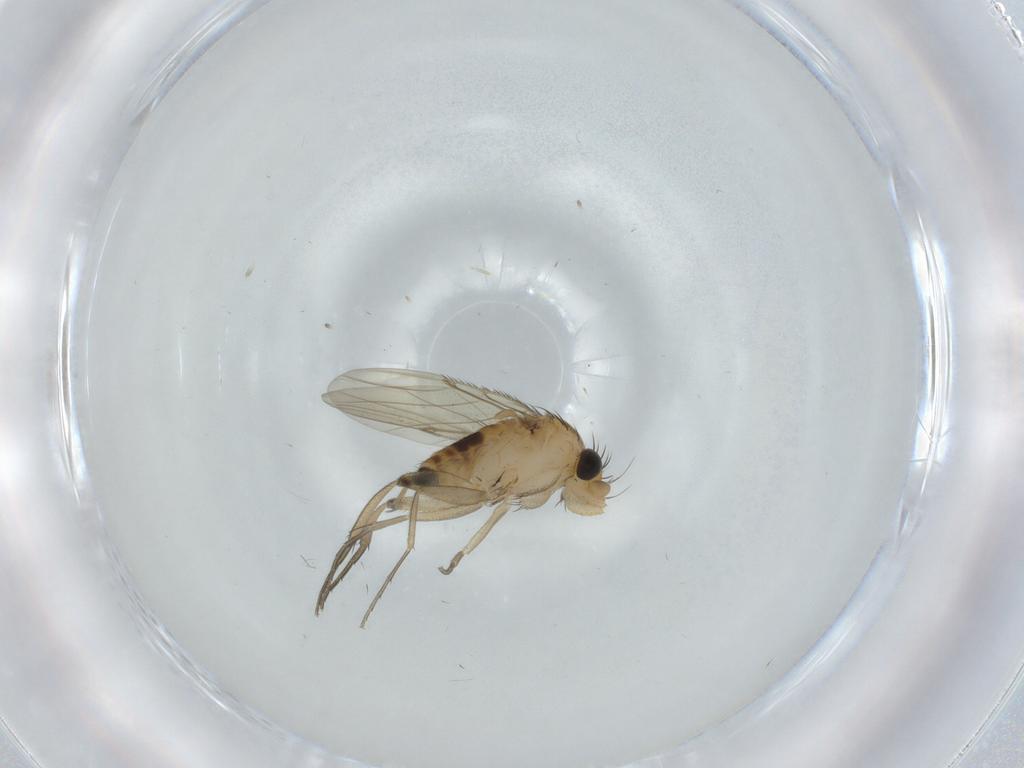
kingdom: Animalia
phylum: Arthropoda
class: Insecta
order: Diptera
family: Phoridae
